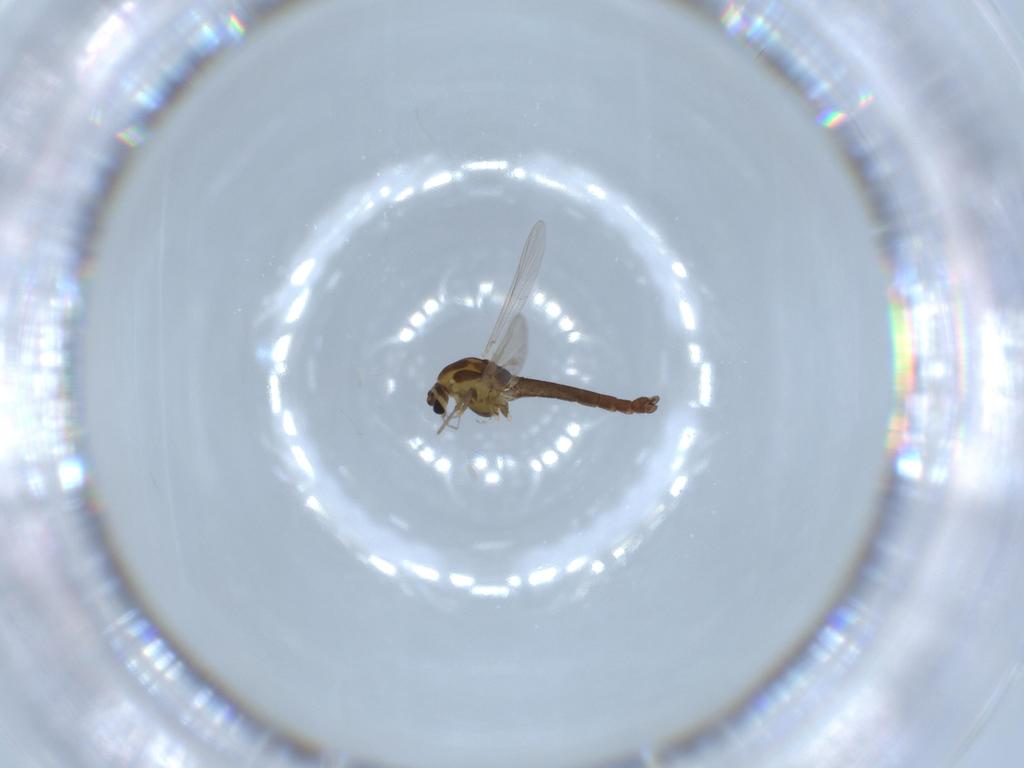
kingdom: Animalia
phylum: Arthropoda
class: Insecta
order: Diptera
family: Chironomidae
